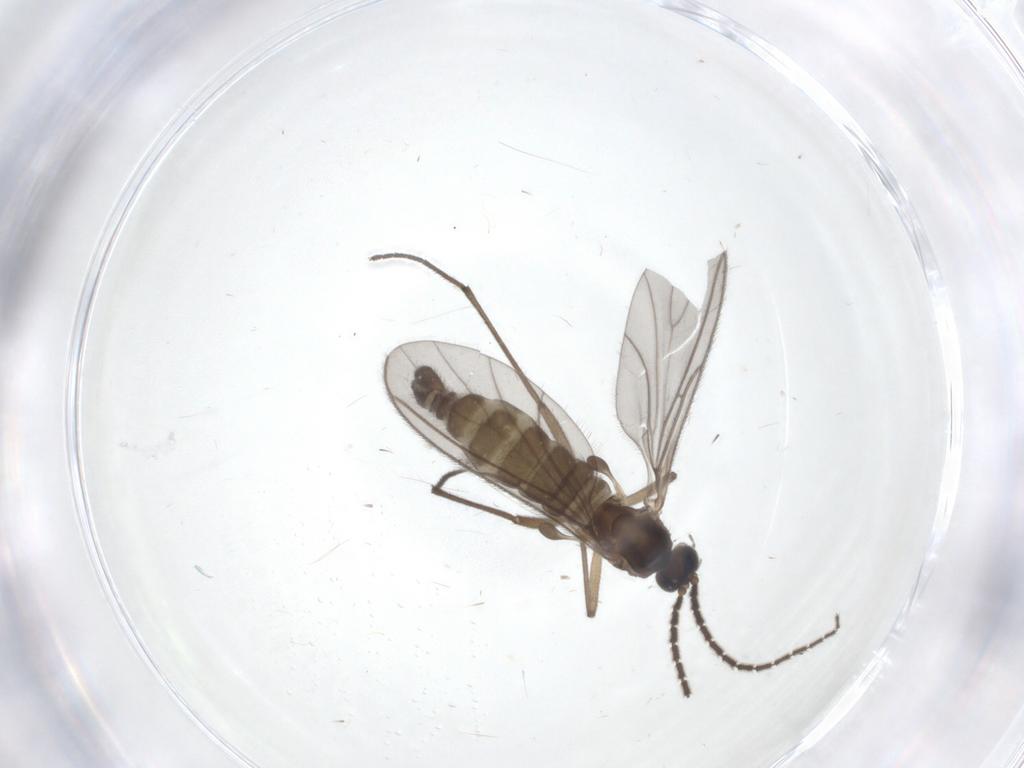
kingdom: Animalia
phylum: Arthropoda
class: Insecta
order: Diptera
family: Sciaridae
